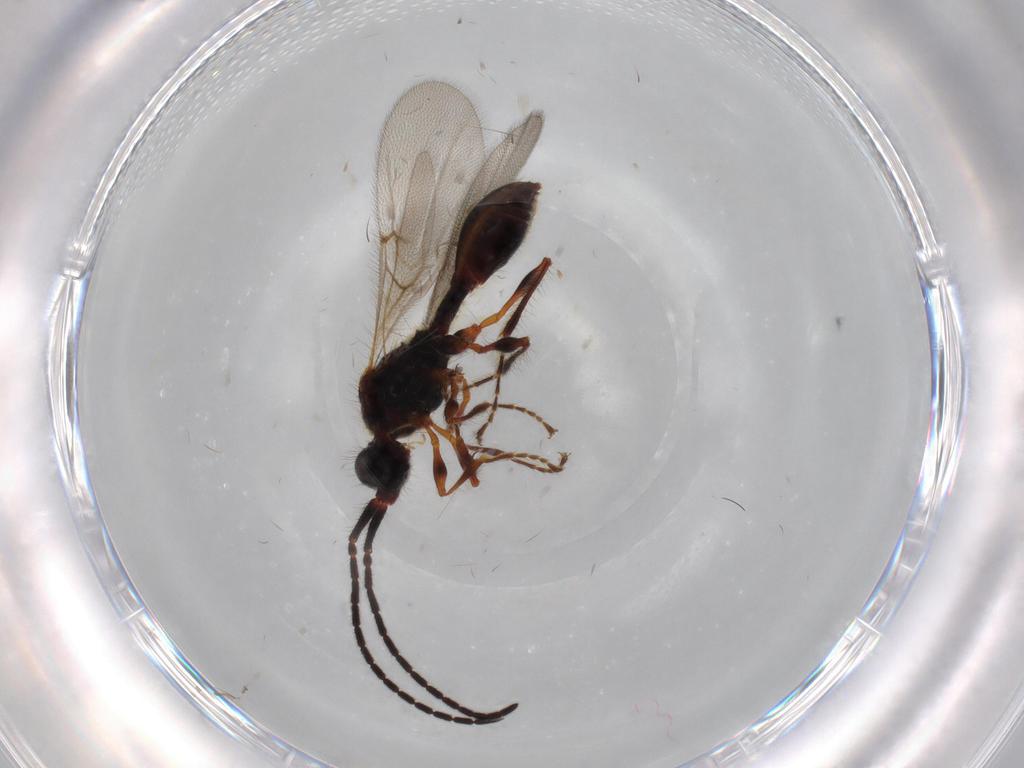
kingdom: Animalia
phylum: Arthropoda
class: Insecta
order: Hymenoptera
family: Diapriidae
